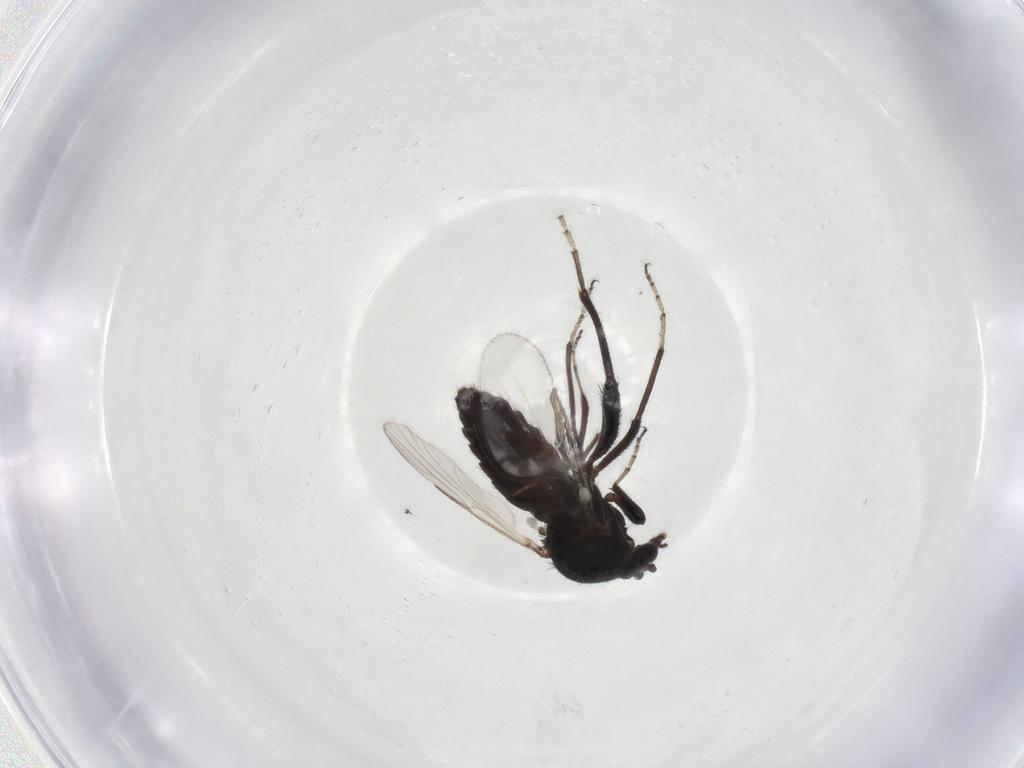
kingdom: Animalia
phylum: Arthropoda
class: Insecta
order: Diptera
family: Ceratopogonidae
